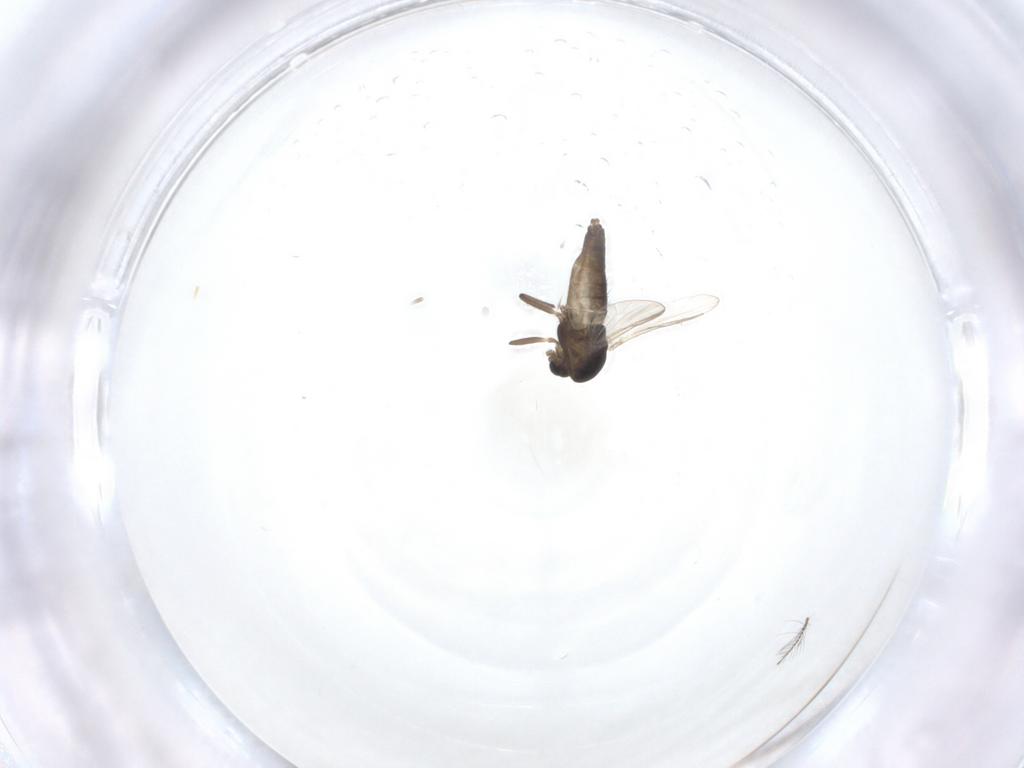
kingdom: Animalia
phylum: Arthropoda
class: Insecta
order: Diptera
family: Chironomidae
